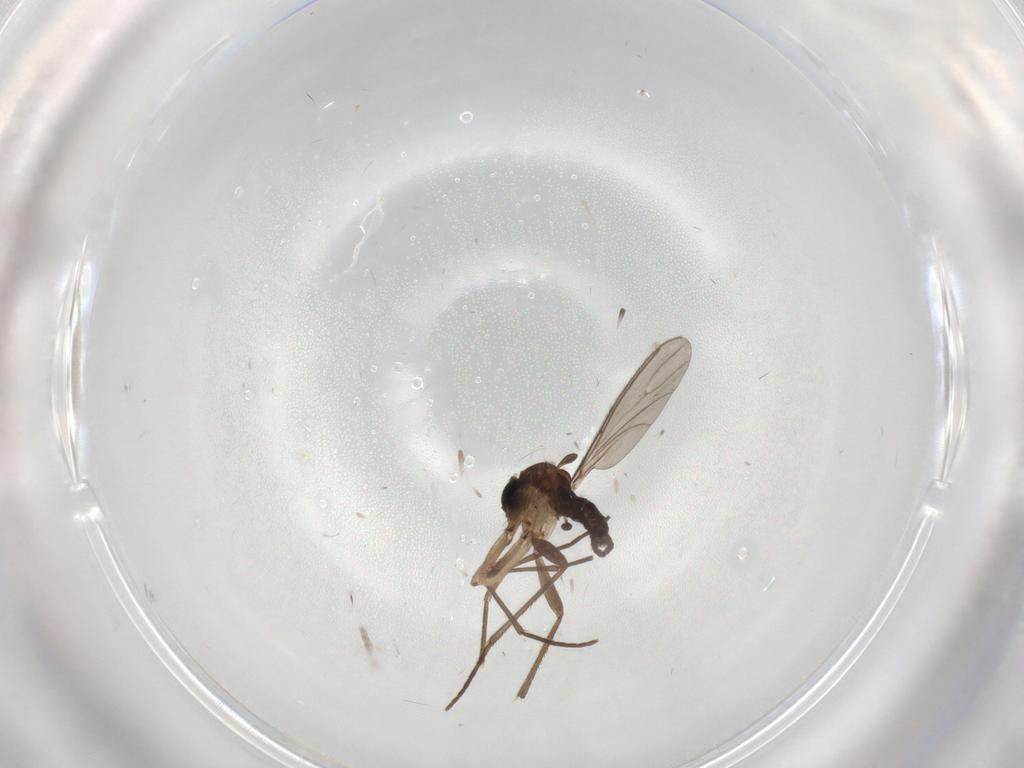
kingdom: Animalia
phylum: Arthropoda
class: Insecta
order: Diptera
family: Sciaridae
